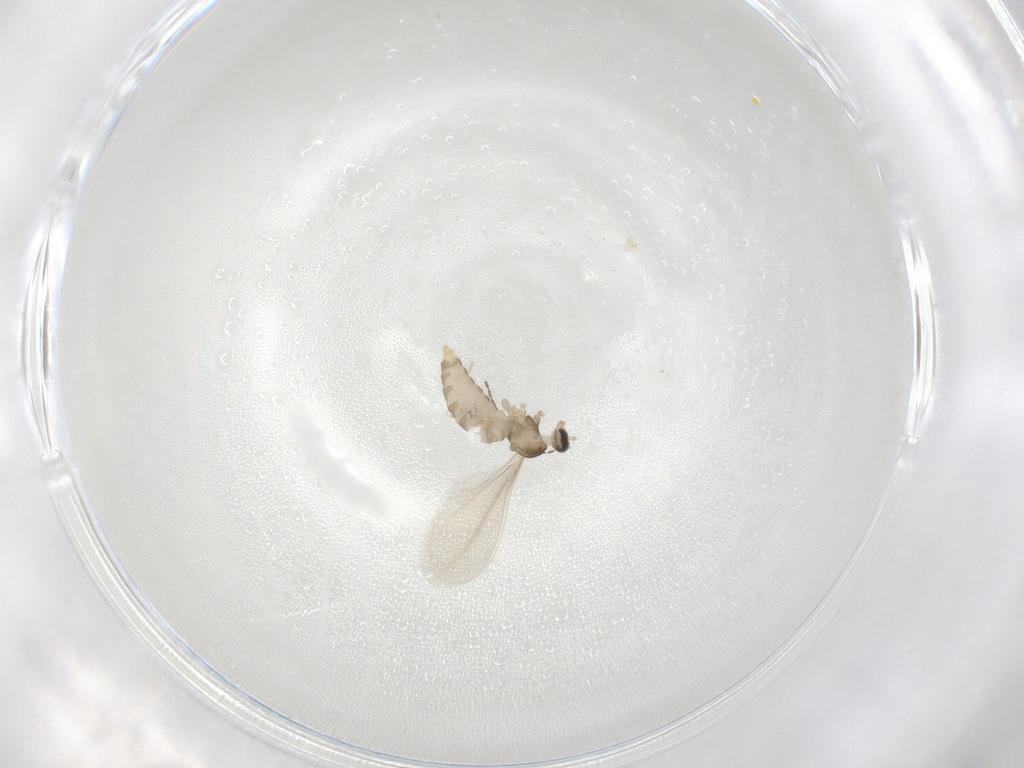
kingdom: Animalia
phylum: Arthropoda
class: Insecta
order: Diptera
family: Cecidomyiidae
